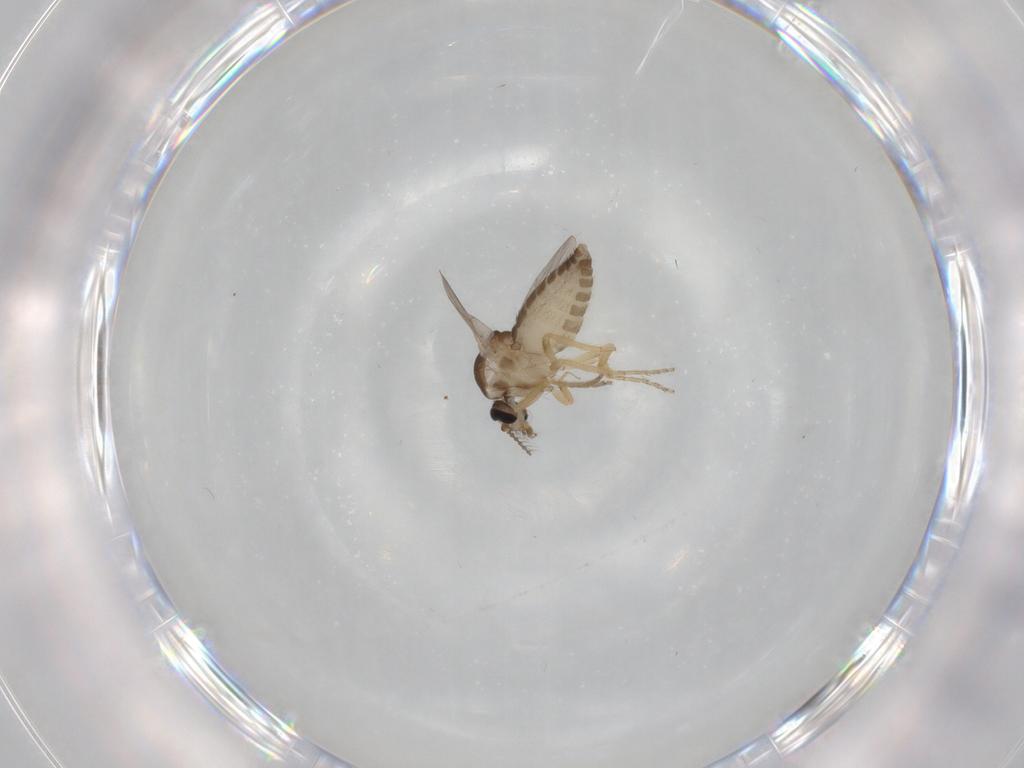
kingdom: Animalia
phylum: Arthropoda
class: Insecta
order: Diptera
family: Ceratopogonidae
